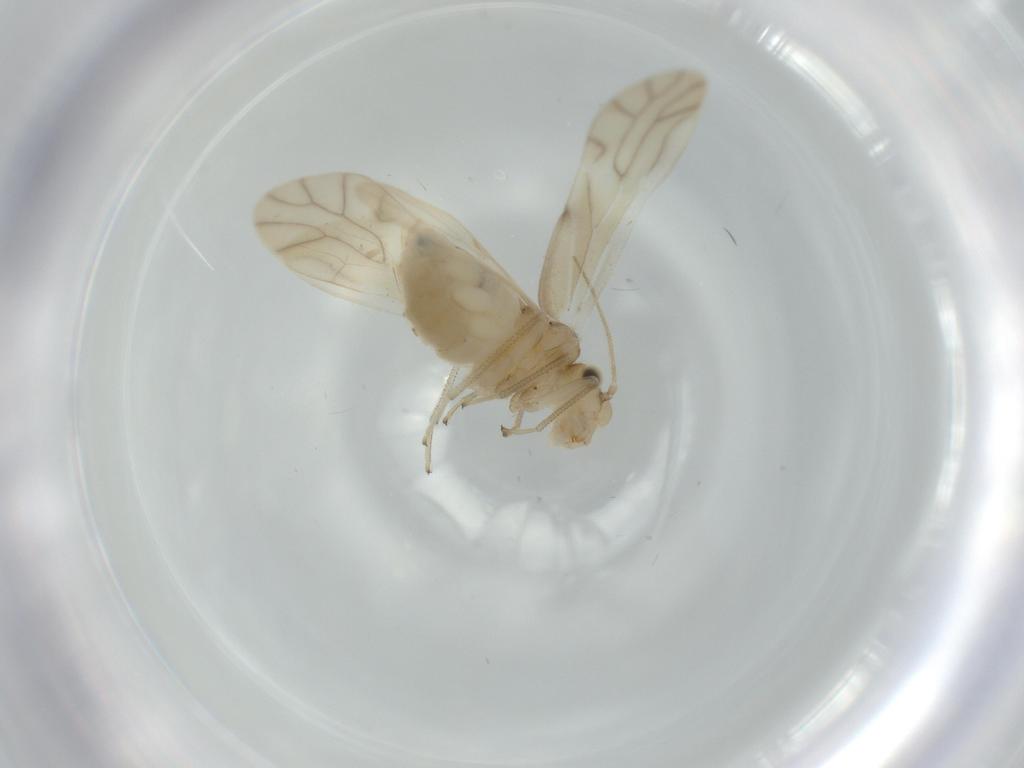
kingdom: Animalia
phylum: Arthropoda
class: Insecta
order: Psocodea
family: Caeciliusidae
